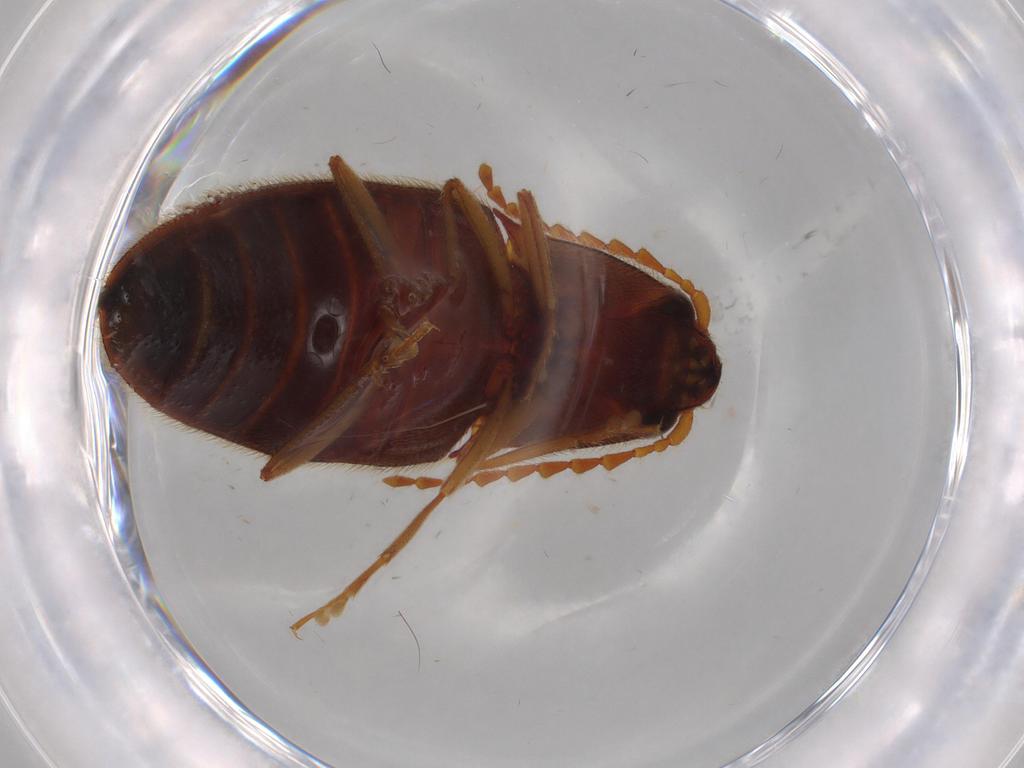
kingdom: Animalia
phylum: Arthropoda
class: Insecta
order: Coleoptera
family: Elateridae
